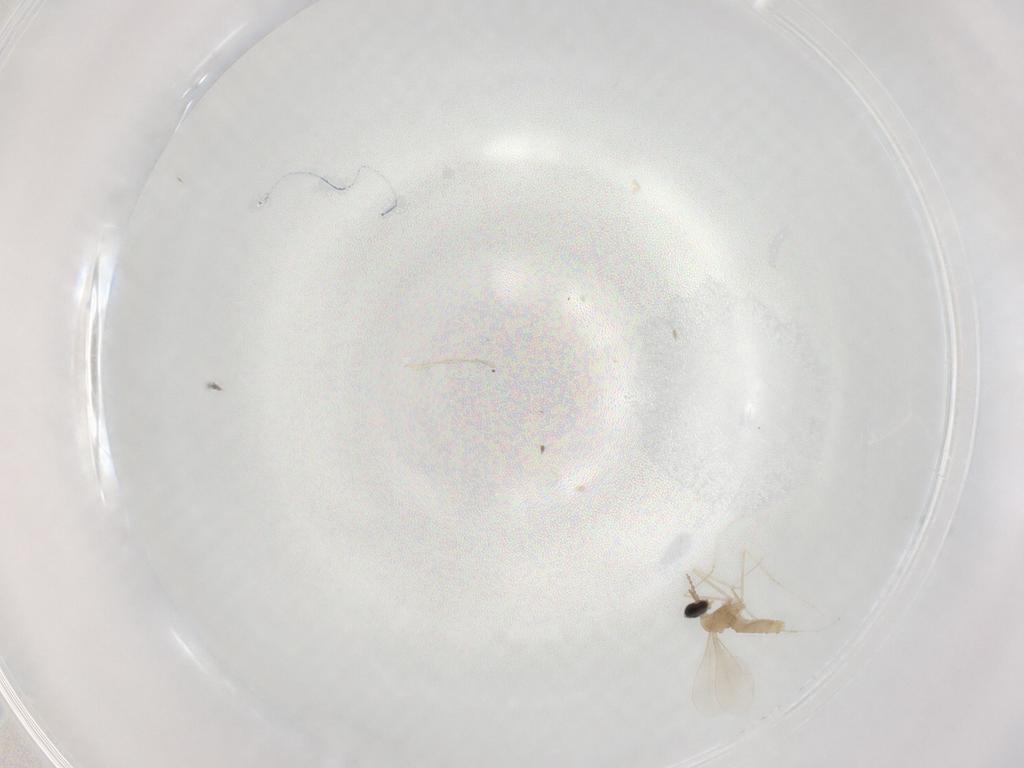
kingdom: Animalia
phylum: Arthropoda
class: Insecta
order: Diptera
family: Cecidomyiidae
